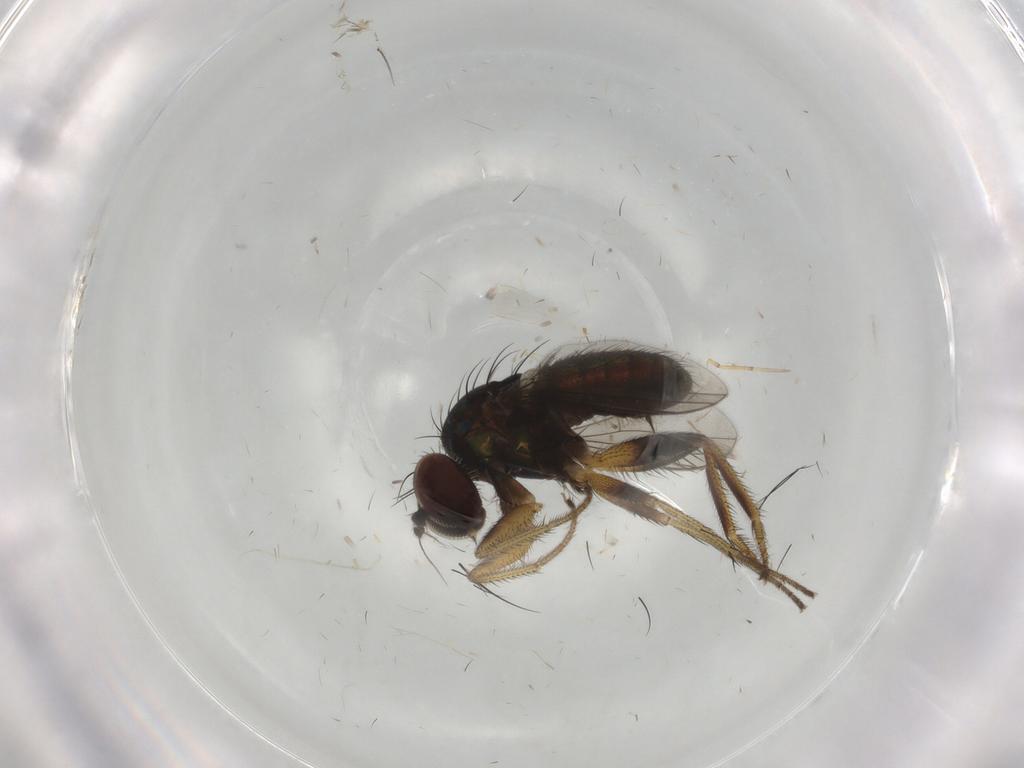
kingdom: Animalia
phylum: Arthropoda
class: Insecta
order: Diptera
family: Dolichopodidae
